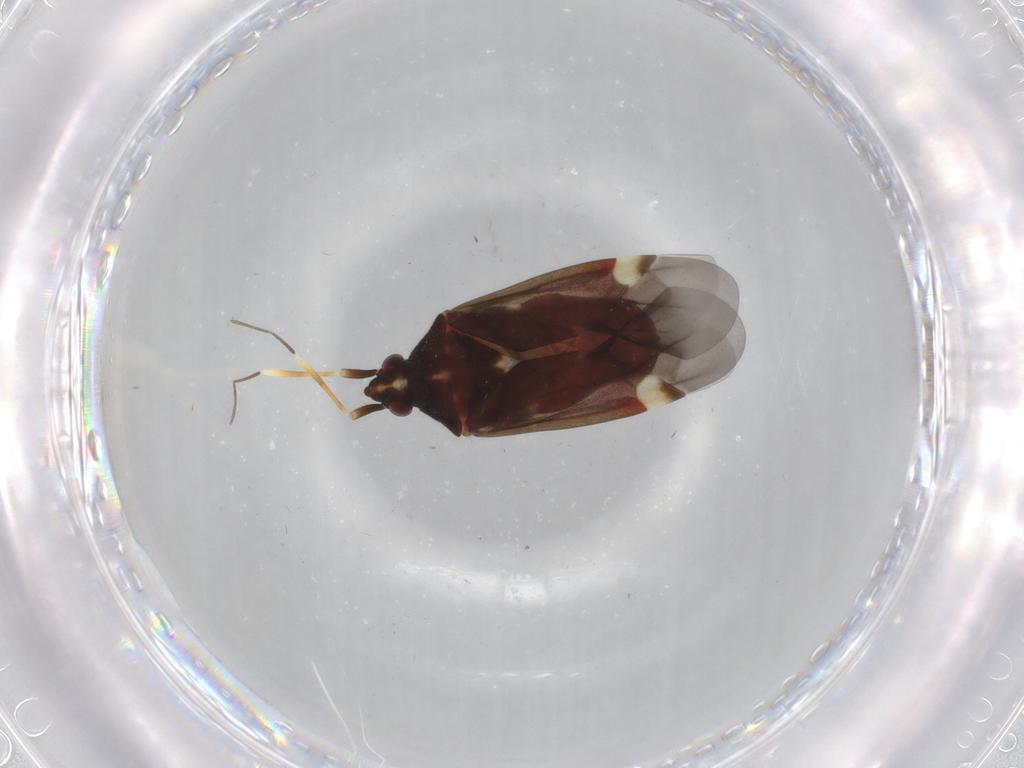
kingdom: Animalia
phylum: Arthropoda
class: Insecta
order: Hemiptera
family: Miridae
